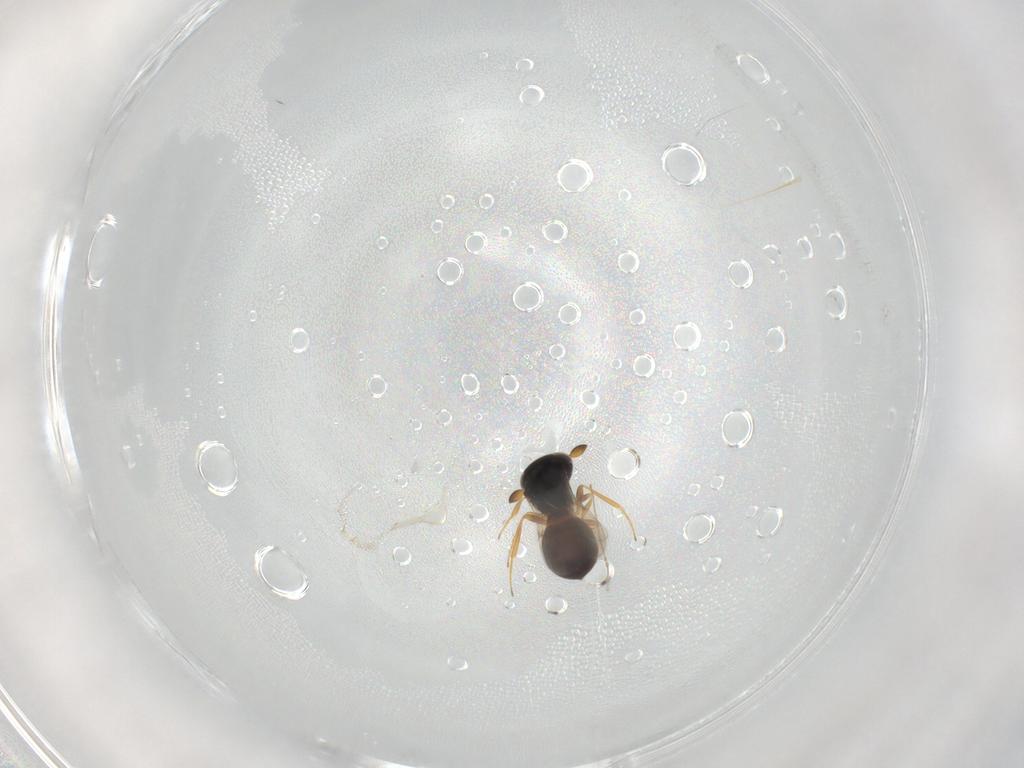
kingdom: Animalia
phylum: Arthropoda
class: Insecta
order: Hymenoptera
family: Scelionidae
